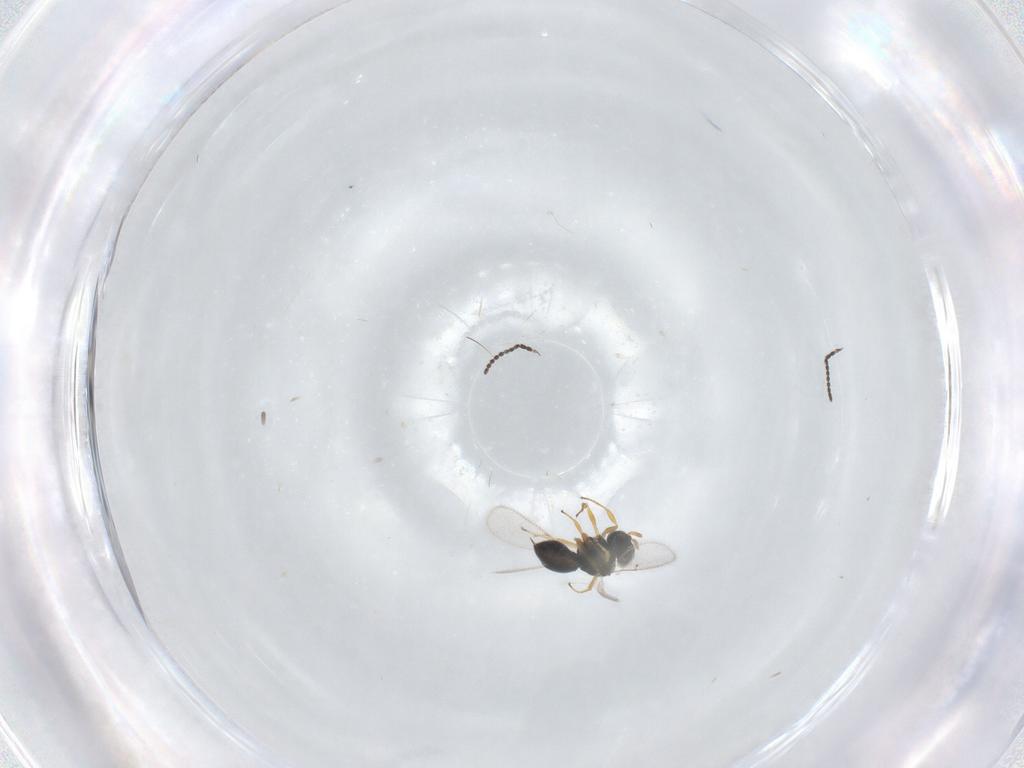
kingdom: Animalia
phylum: Arthropoda
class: Insecta
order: Hymenoptera
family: Scelionidae
